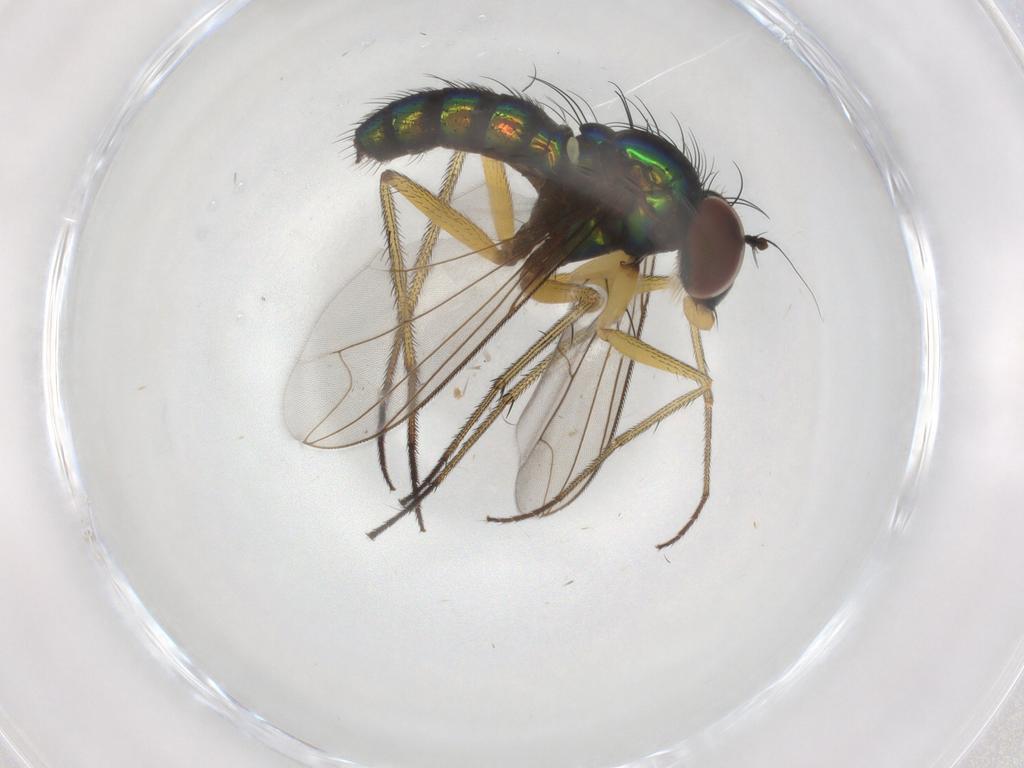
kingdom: Animalia
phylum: Arthropoda
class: Insecta
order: Diptera
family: Dolichopodidae
